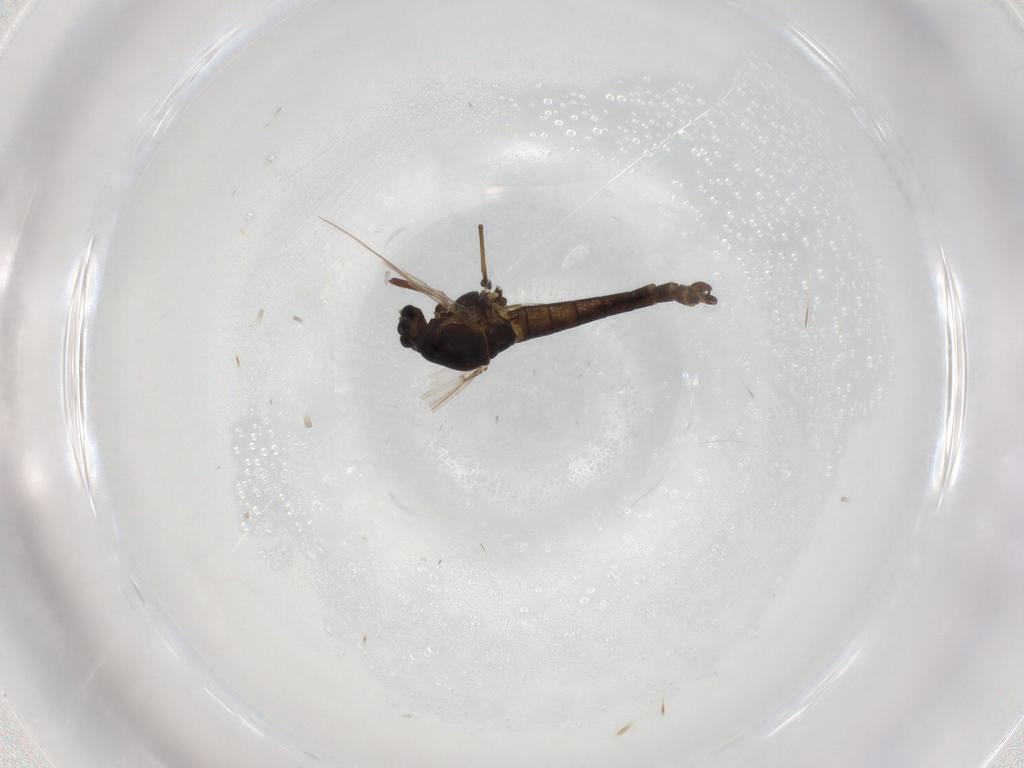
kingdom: Animalia
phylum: Arthropoda
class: Insecta
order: Diptera
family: Chironomidae
